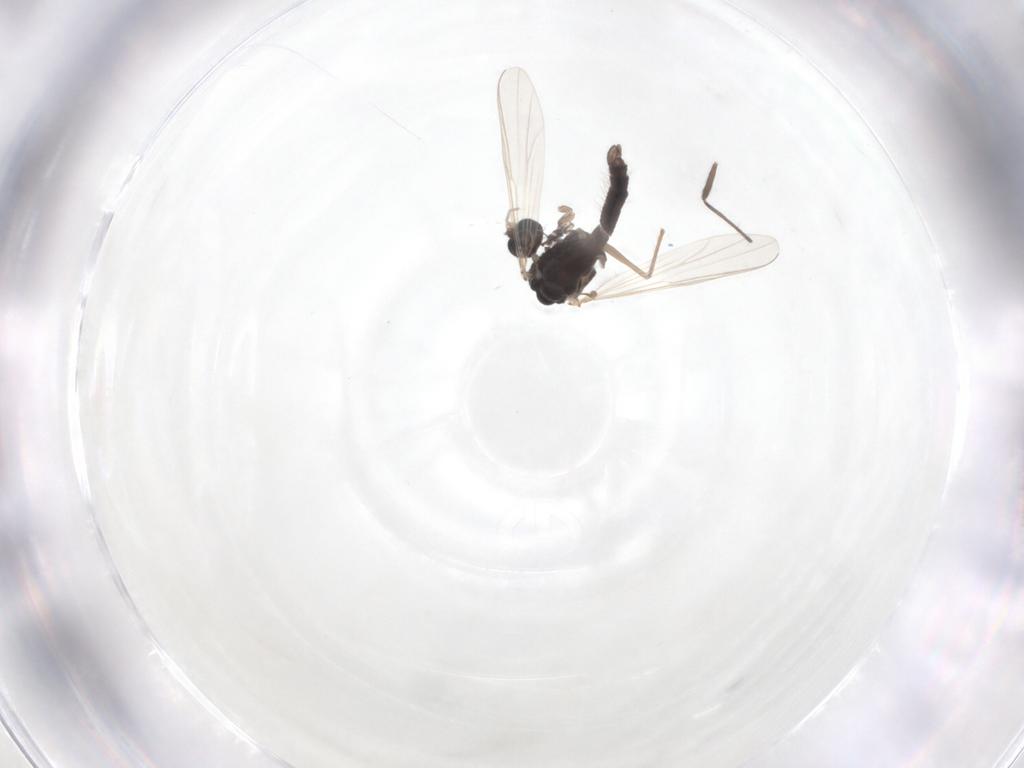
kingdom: Animalia
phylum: Arthropoda
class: Insecta
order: Diptera
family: Chironomidae
